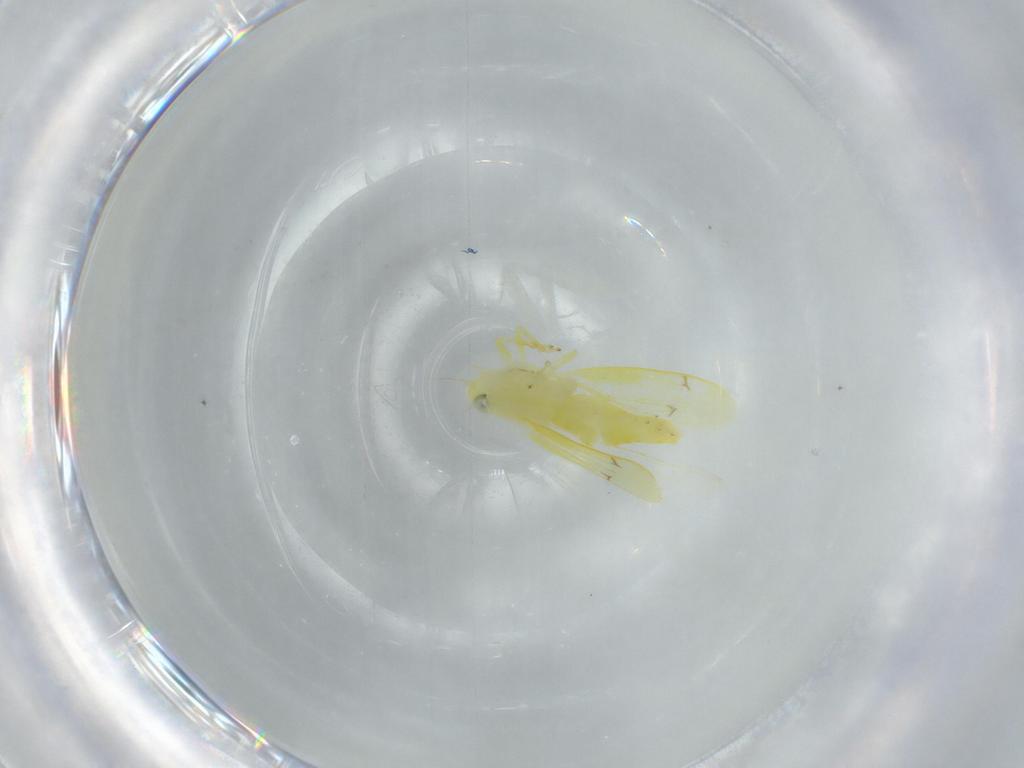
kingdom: Animalia
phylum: Arthropoda
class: Insecta
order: Hemiptera
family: Cicadellidae
